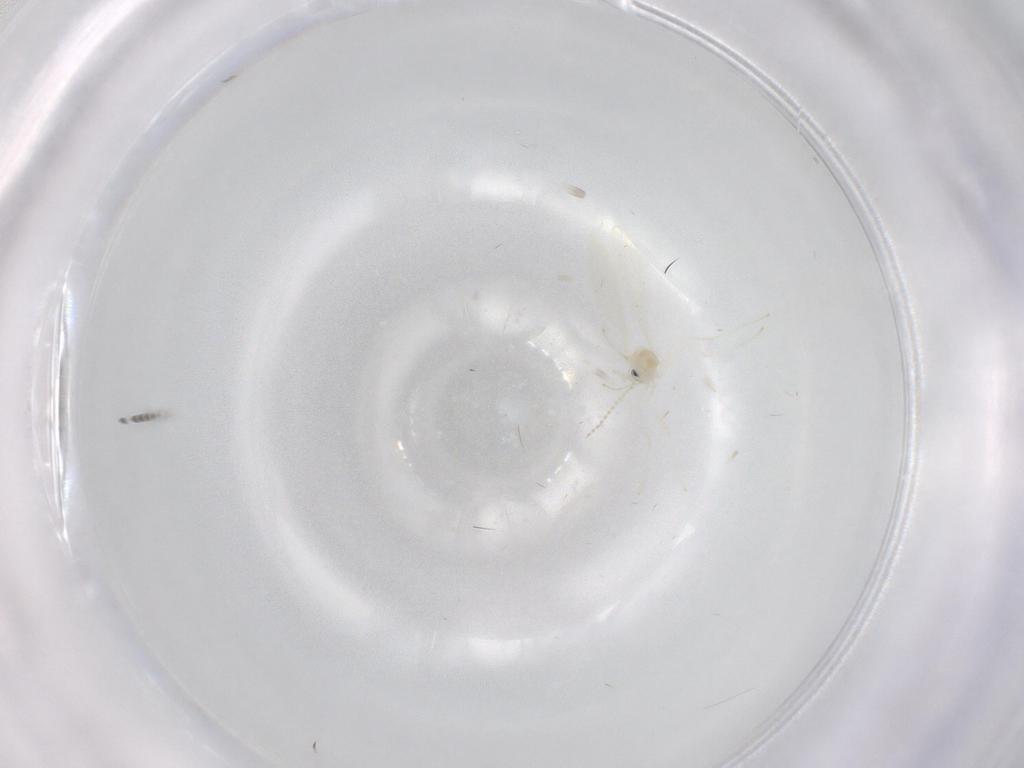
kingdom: Animalia
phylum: Arthropoda
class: Insecta
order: Diptera
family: Cecidomyiidae
